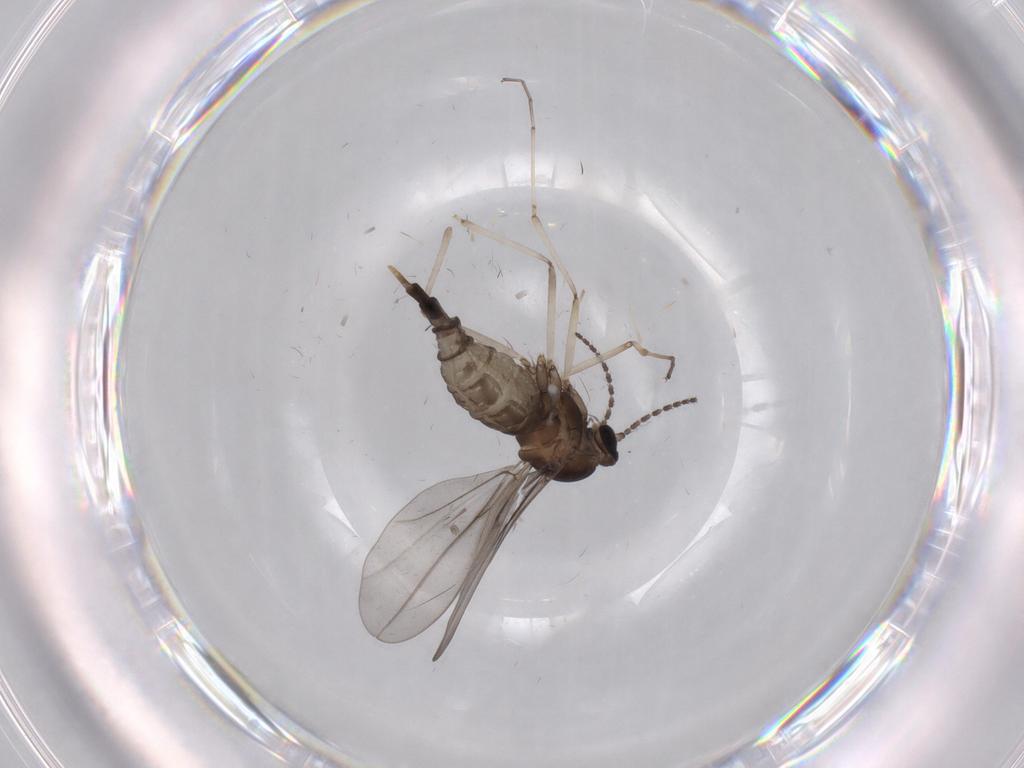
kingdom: Animalia
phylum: Arthropoda
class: Insecta
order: Diptera
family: Cecidomyiidae
